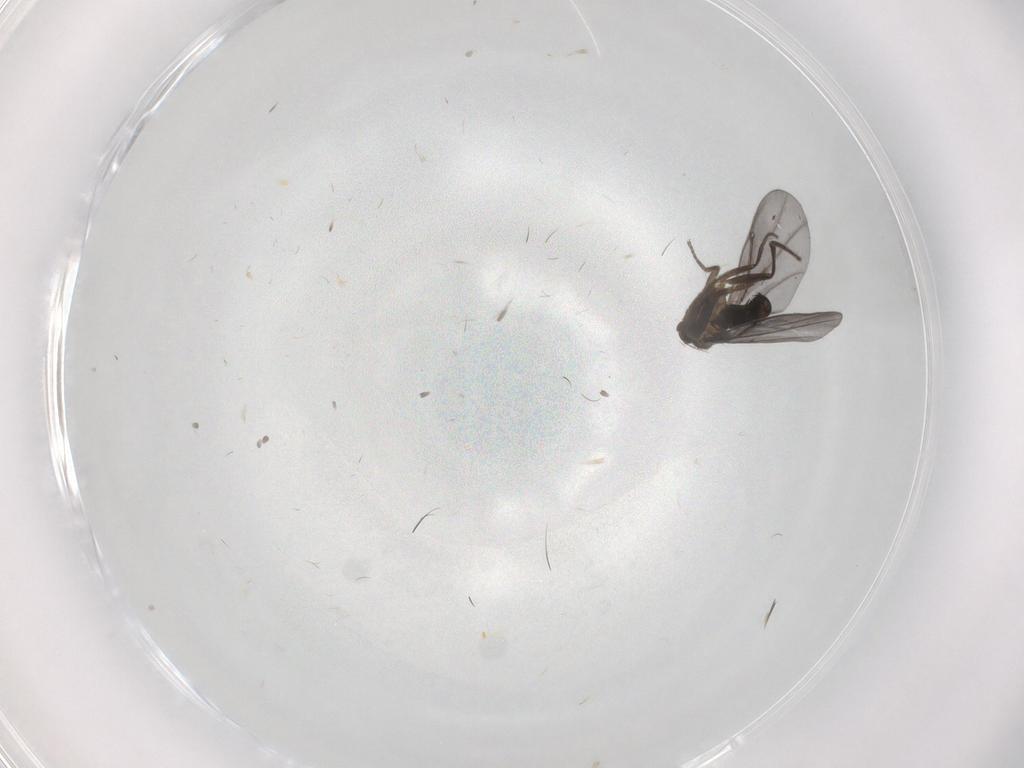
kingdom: Animalia
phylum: Arthropoda
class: Insecta
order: Diptera
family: Phoridae
